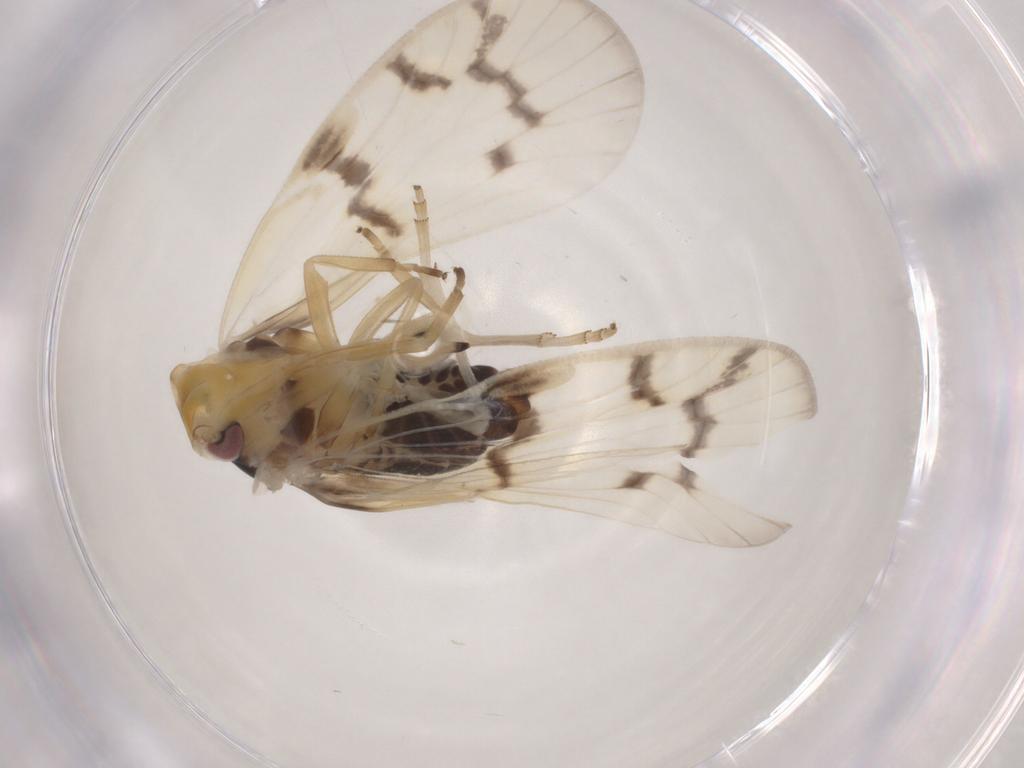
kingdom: Animalia
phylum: Arthropoda
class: Insecta
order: Hemiptera
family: Cixiidae
